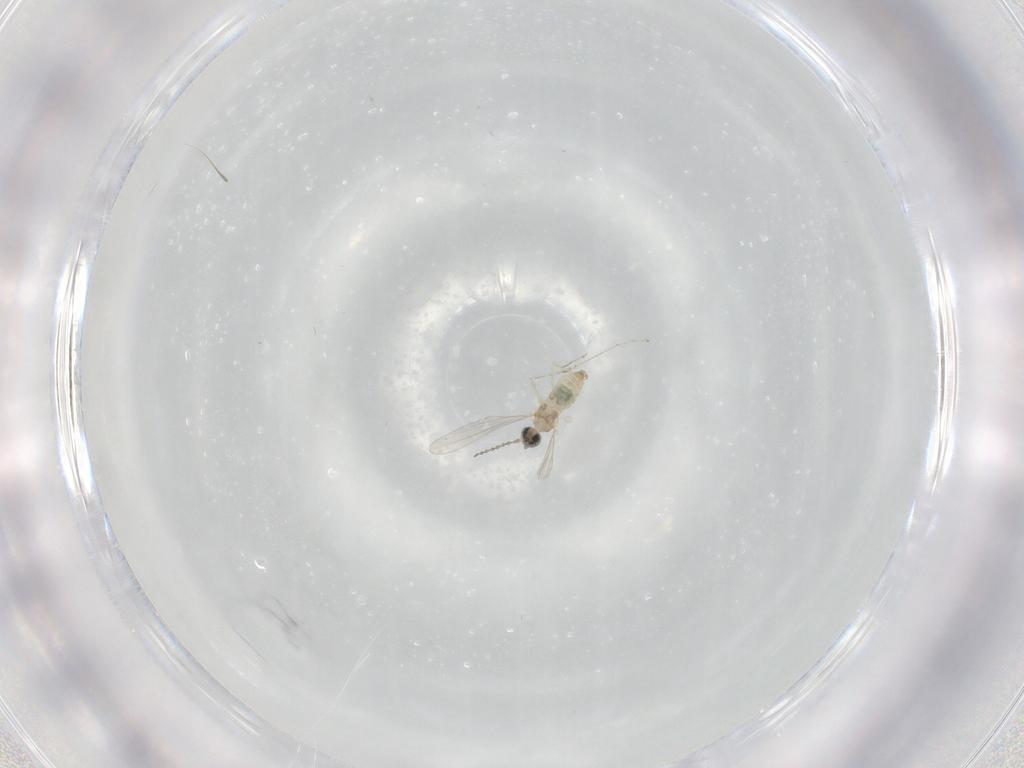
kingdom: Animalia
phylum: Arthropoda
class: Insecta
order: Diptera
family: Cecidomyiidae
